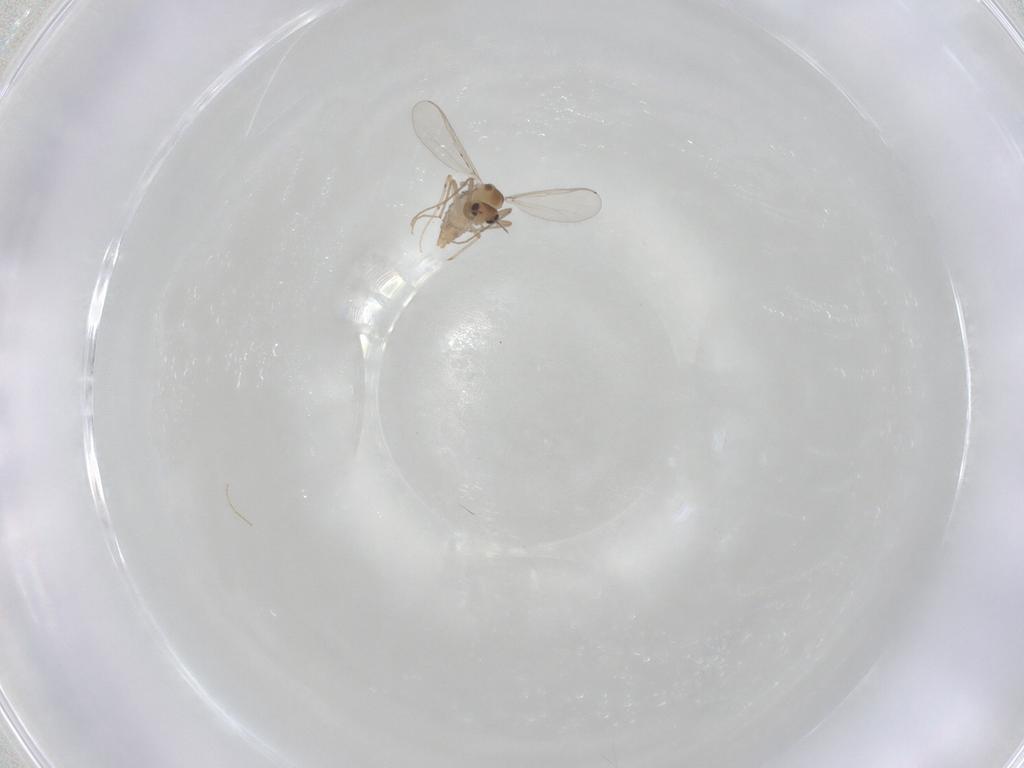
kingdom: Animalia
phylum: Arthropoda
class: Insecta
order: Diptera
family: Chironomidae
